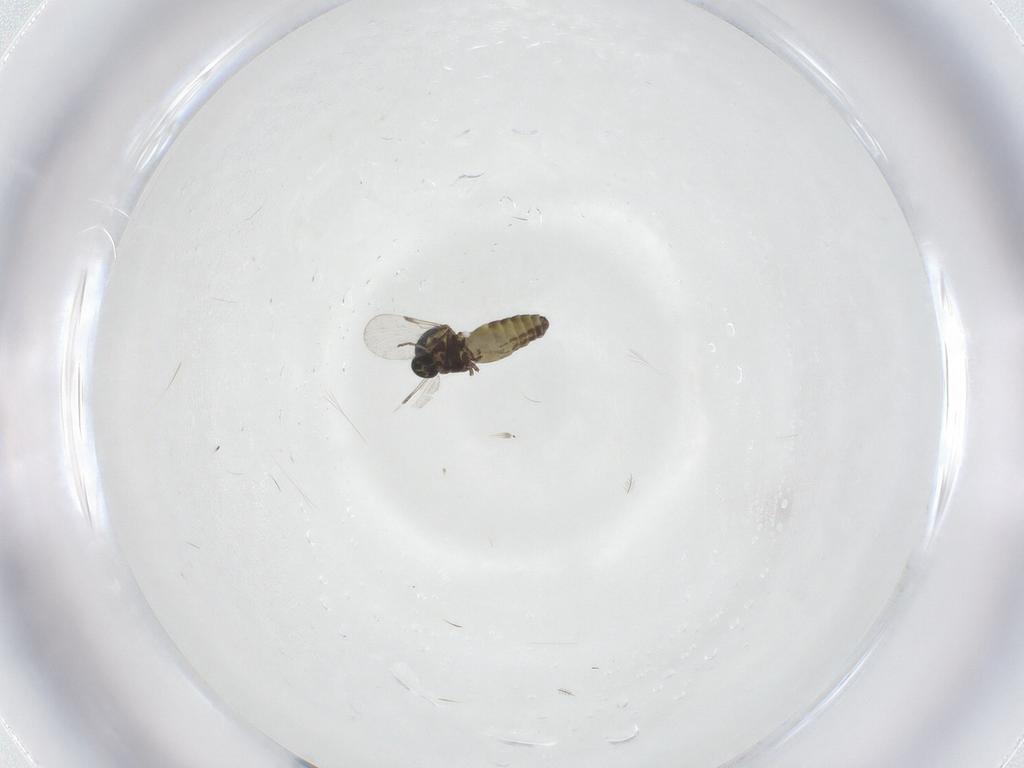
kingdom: Animalia
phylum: Arthropoda
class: Insecta
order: Diptera
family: Ceratopogonidae
